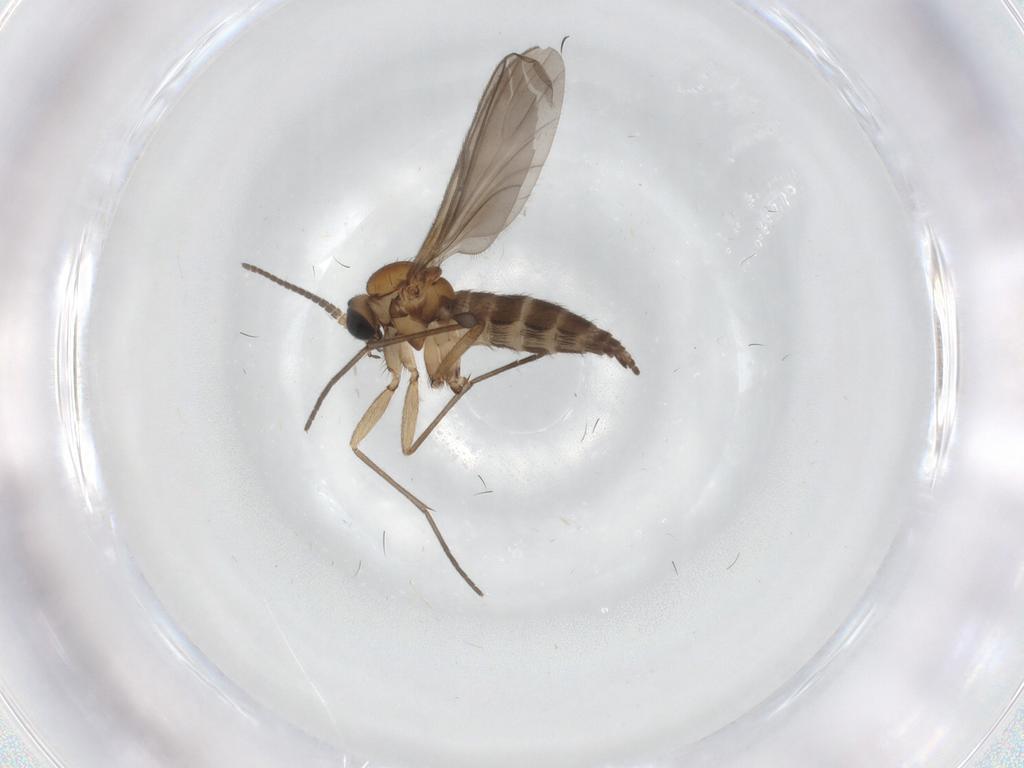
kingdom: Animalia
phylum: Arthropoda
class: Insecta
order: Diptera
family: Sciaridae
